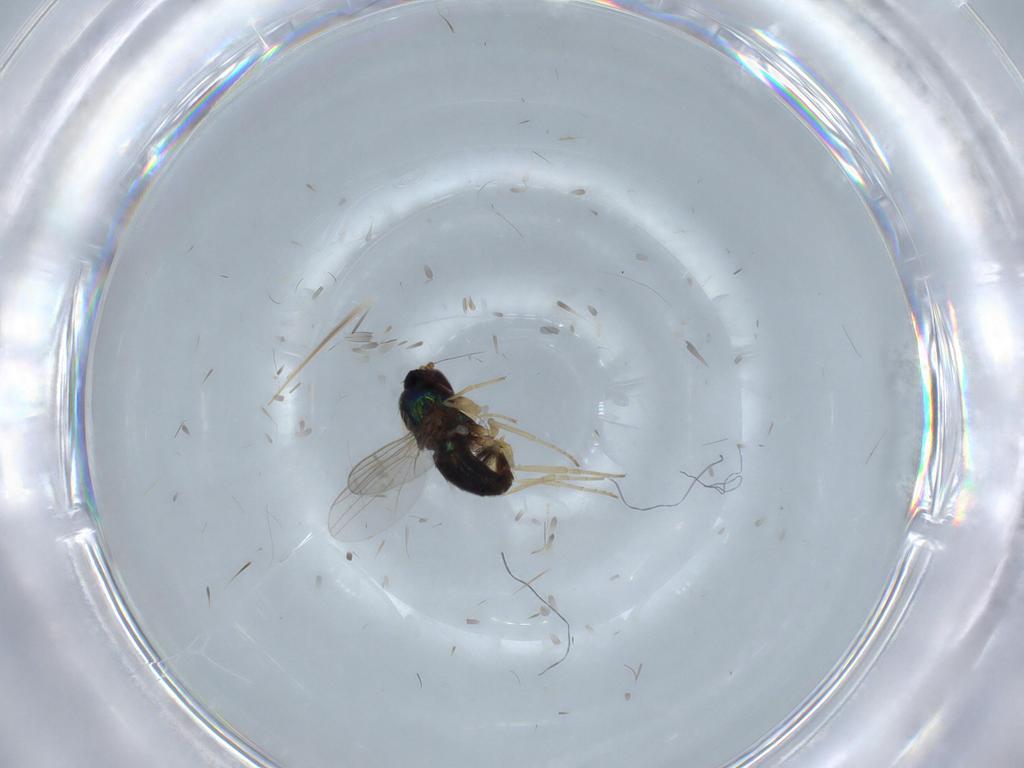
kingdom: Animalia
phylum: Arthropoda
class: Insecta
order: Diptera
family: Dolichopodidae
